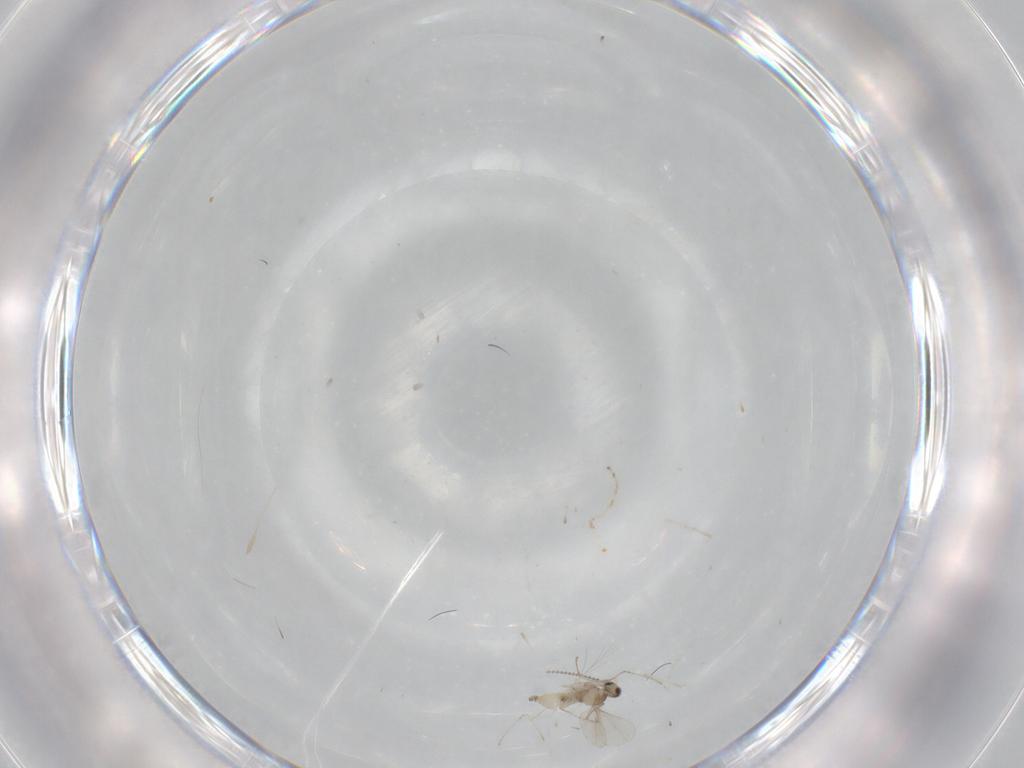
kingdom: Animalia
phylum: Arthropoda
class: Insecta
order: Diptera
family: Cecidomyiidae
